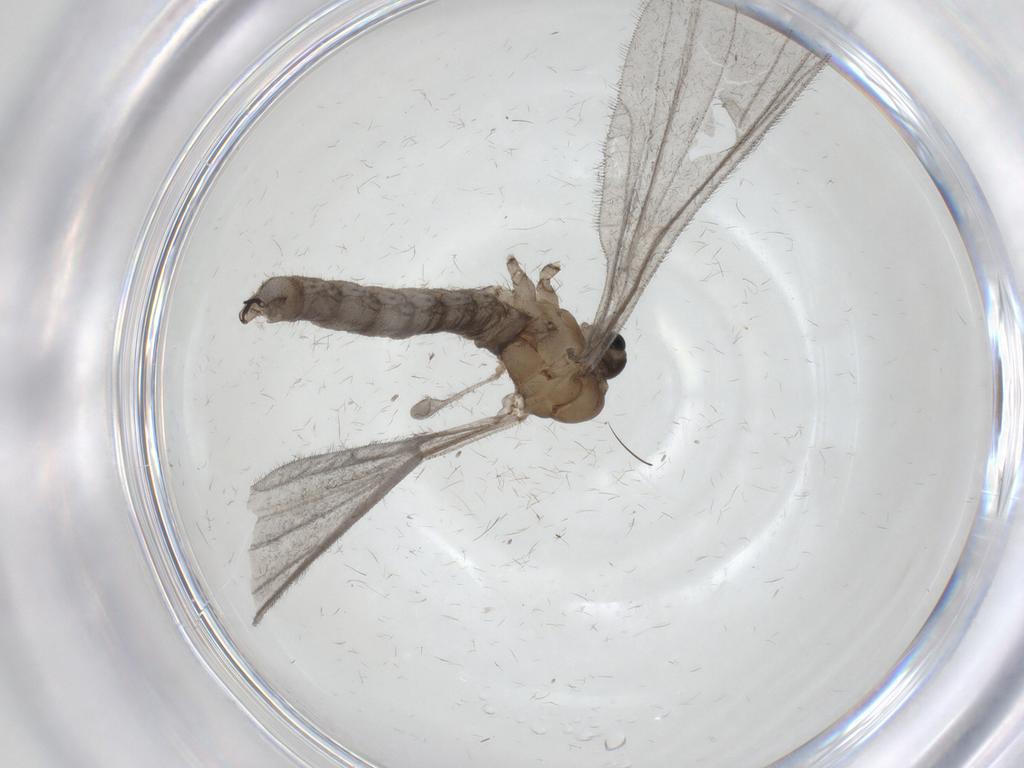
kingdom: Animalia
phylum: Arthropoda
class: Insecta
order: Diptera
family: Limoniidae
